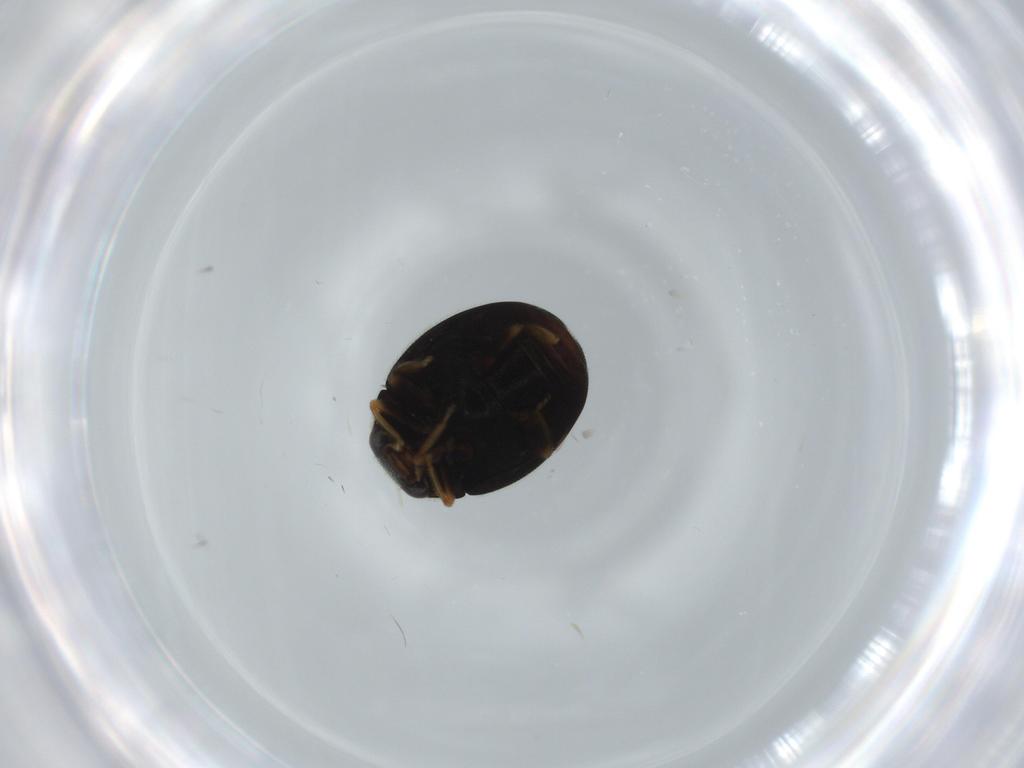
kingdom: Animalia
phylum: Arthropoda
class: Insecta
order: Coleoptera
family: Coccinellidae
